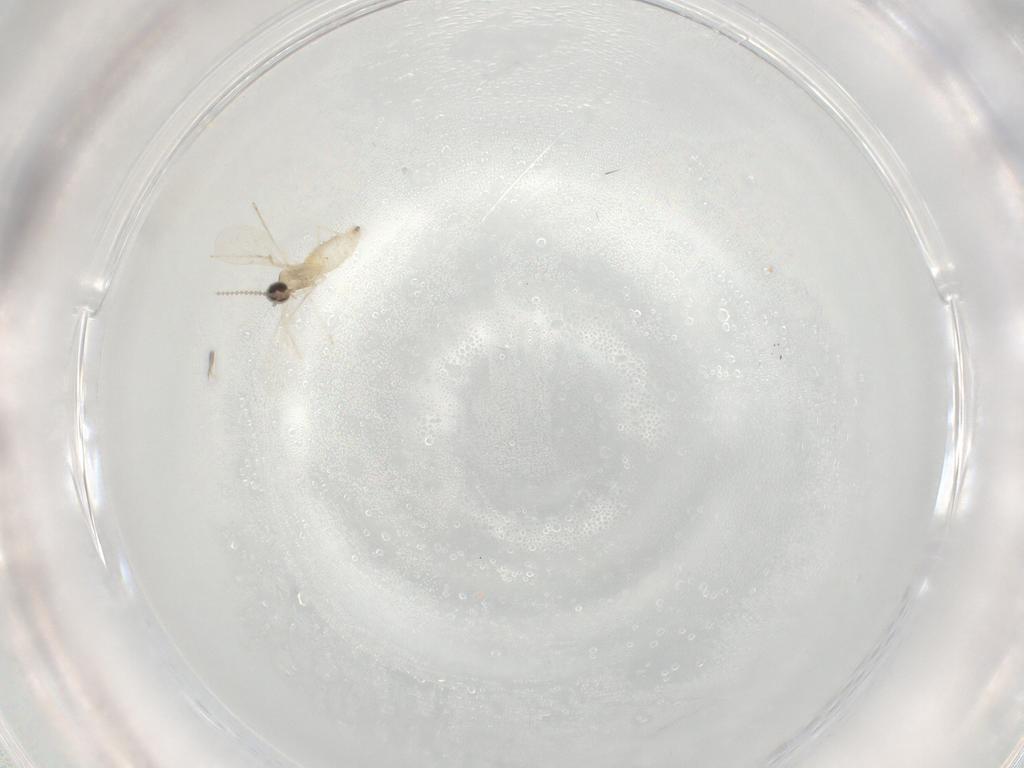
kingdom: Animalia
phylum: Arthropoda
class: Insecta
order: Diptera
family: Cecidomyiidae
